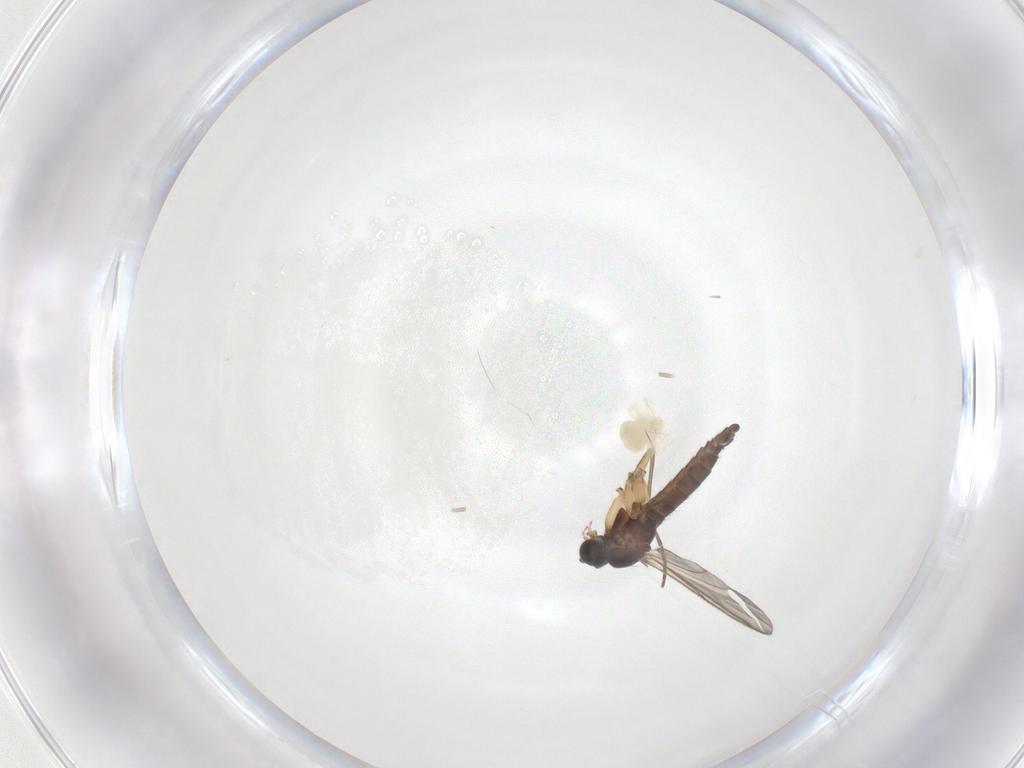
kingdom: Animalia
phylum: Arthropoda
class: Insecta
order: Diptera
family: Sciaridae
